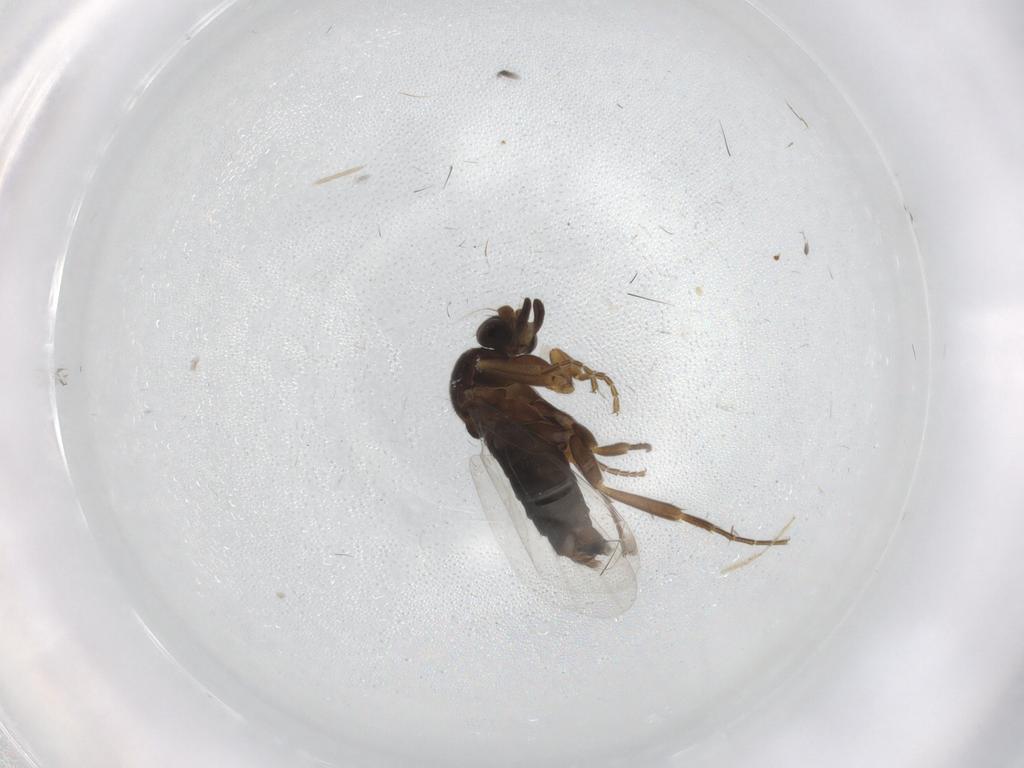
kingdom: Animalia
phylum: Arthropoda
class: Insecta
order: Diptera
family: Phoridae
